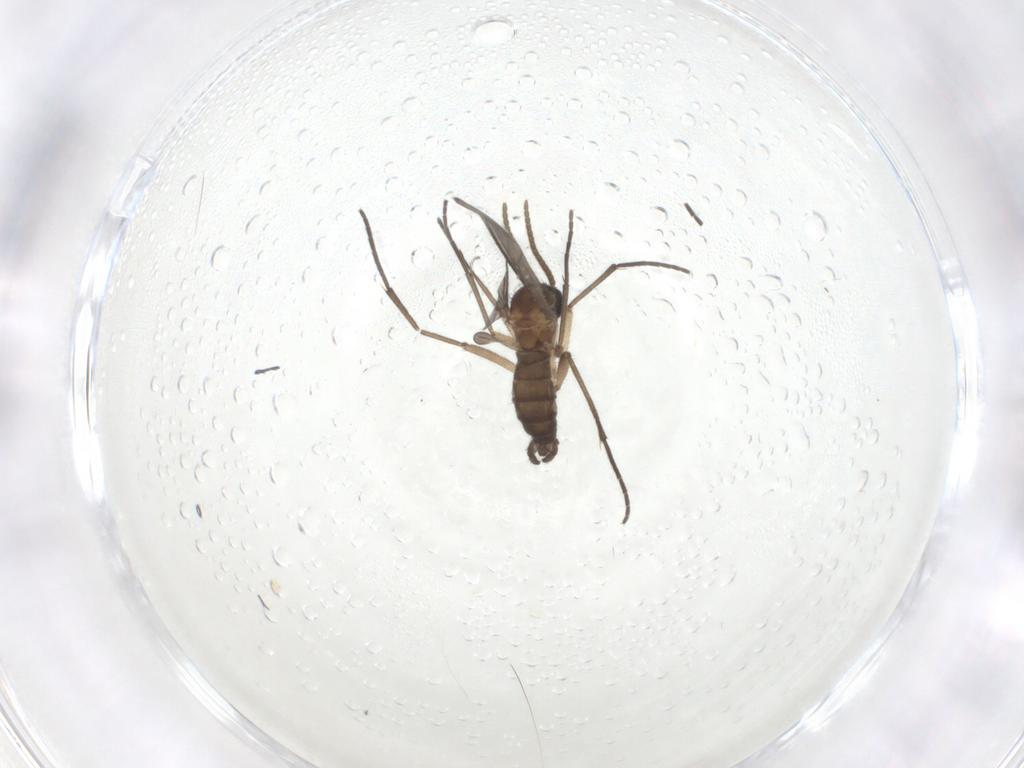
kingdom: Animalia
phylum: Arthropoda
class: Insecta
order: Diptera
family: Sciaridae
